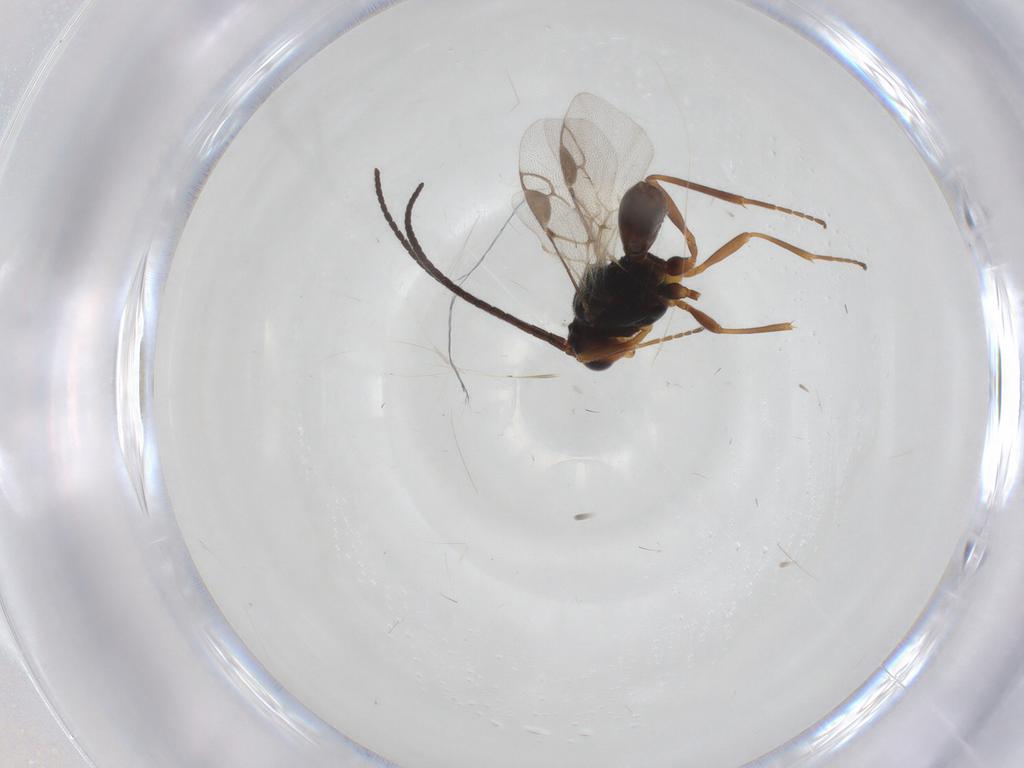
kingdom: Animalia
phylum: Arthropoda
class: Insecta
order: Hymenoptera
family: Braconidae
